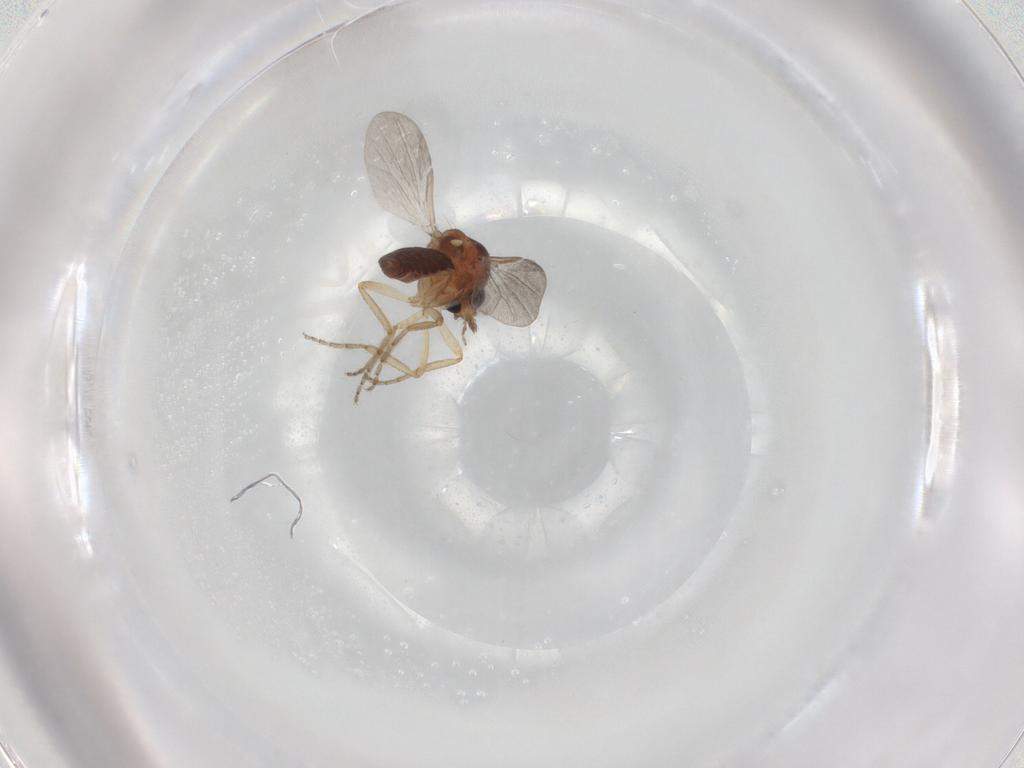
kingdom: Animalia
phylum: Arthropoda
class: Insecta
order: Diptera
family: Ceratopogonidae
